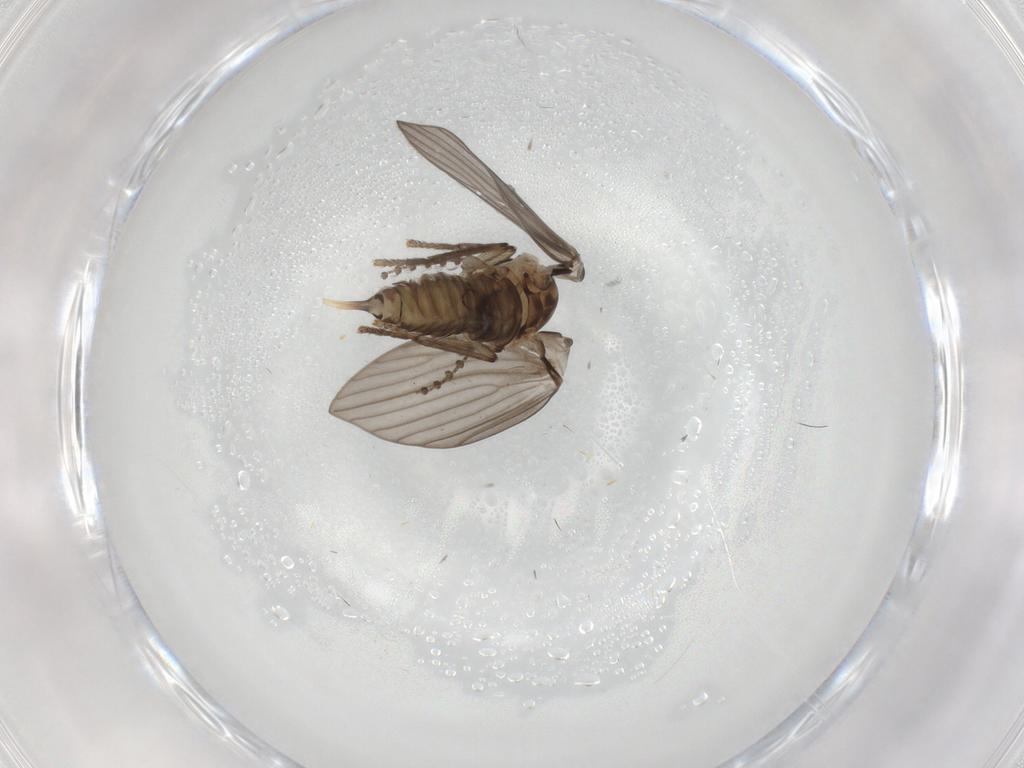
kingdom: Animalia
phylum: Arthropoda
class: Insecta
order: Diptera
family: Psychodidae
